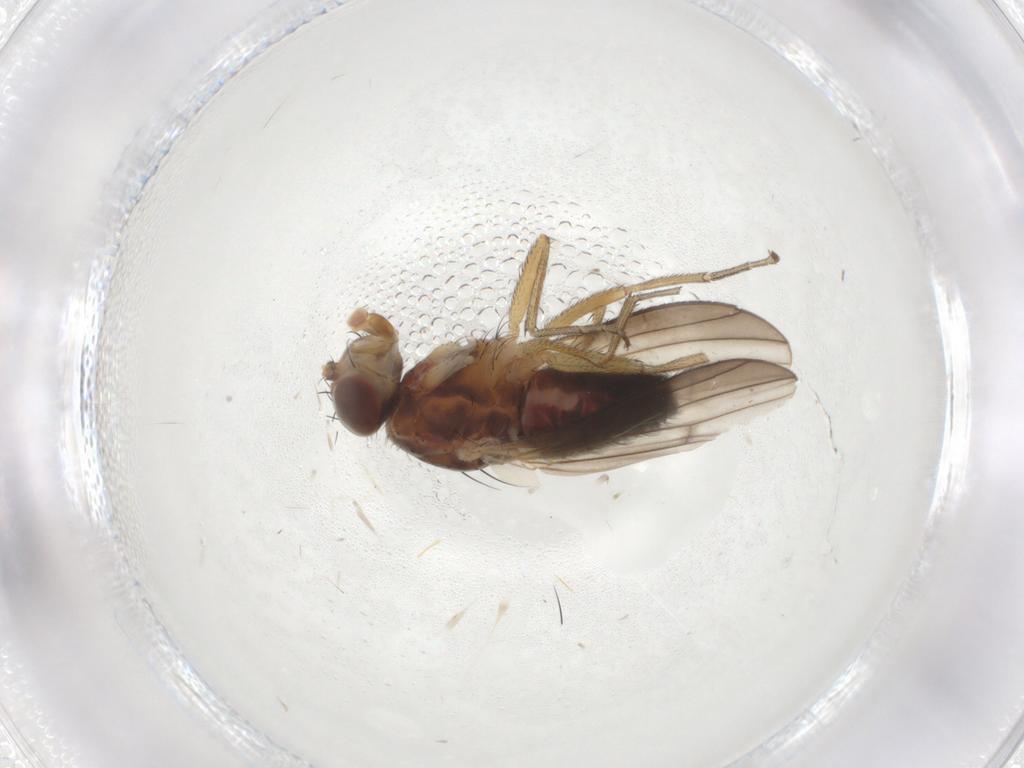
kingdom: Animalia
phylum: Arthropoda
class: Insecta
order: Diptera
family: Heleomyzidae
